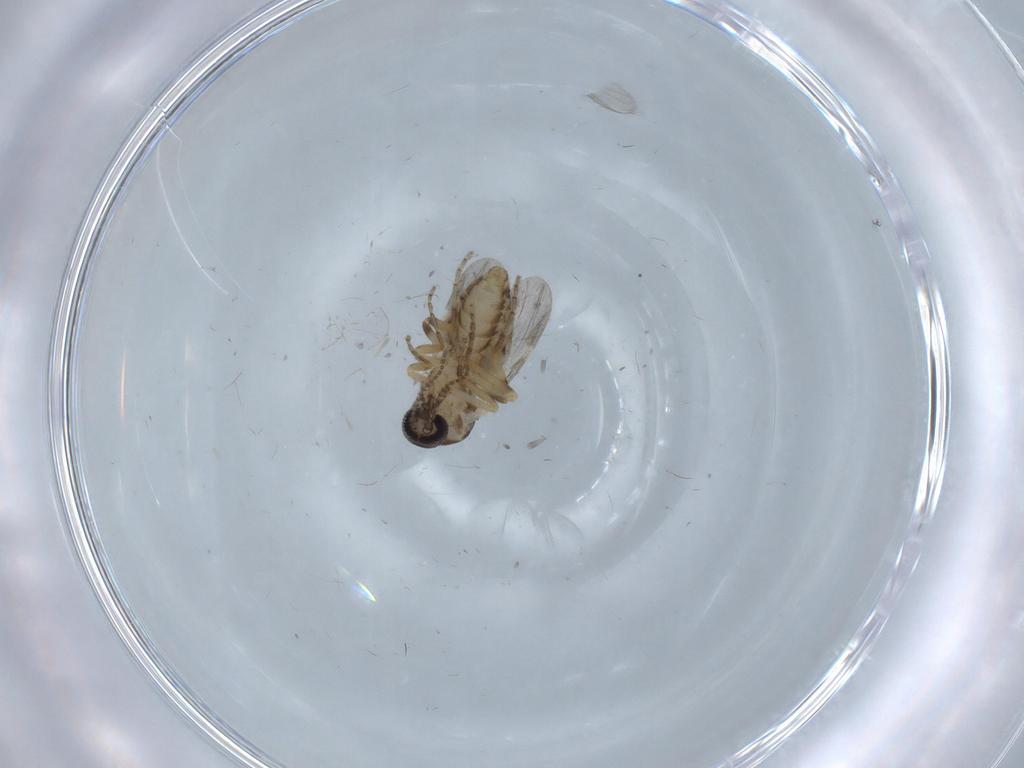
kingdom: Animalia
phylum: Arthropoda
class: Insecta
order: Diptera
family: Ceratopogonidae
